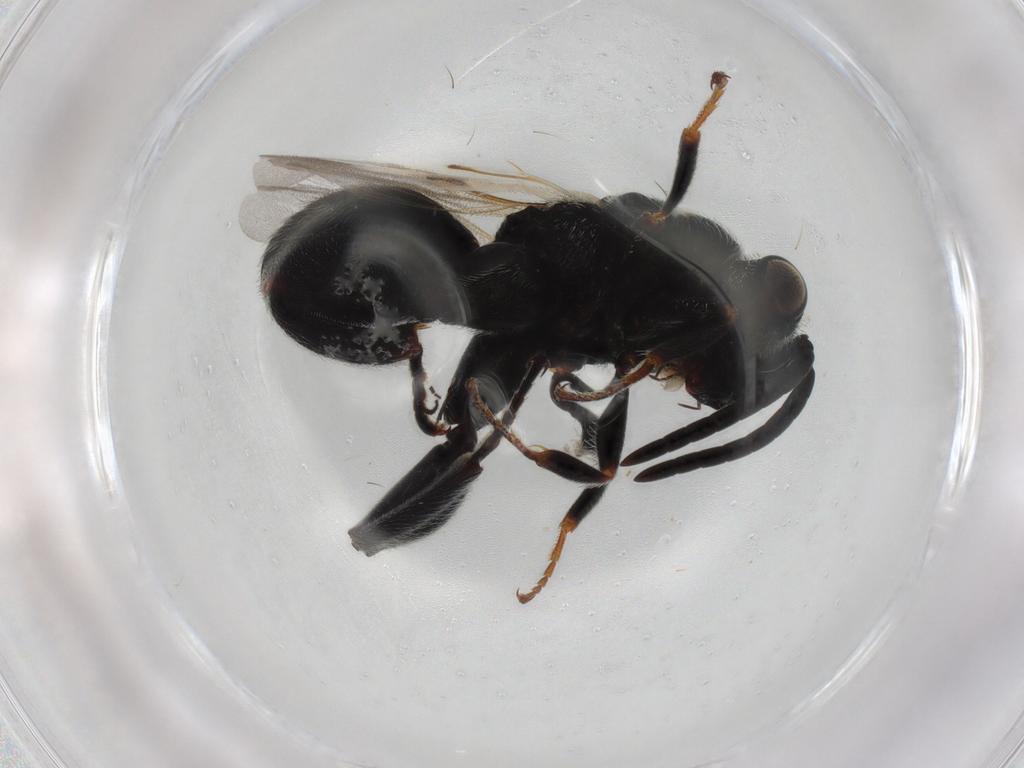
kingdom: Animalia
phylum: Arthropoda
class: Insecta
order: Hymenoptera
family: Chalcididae
